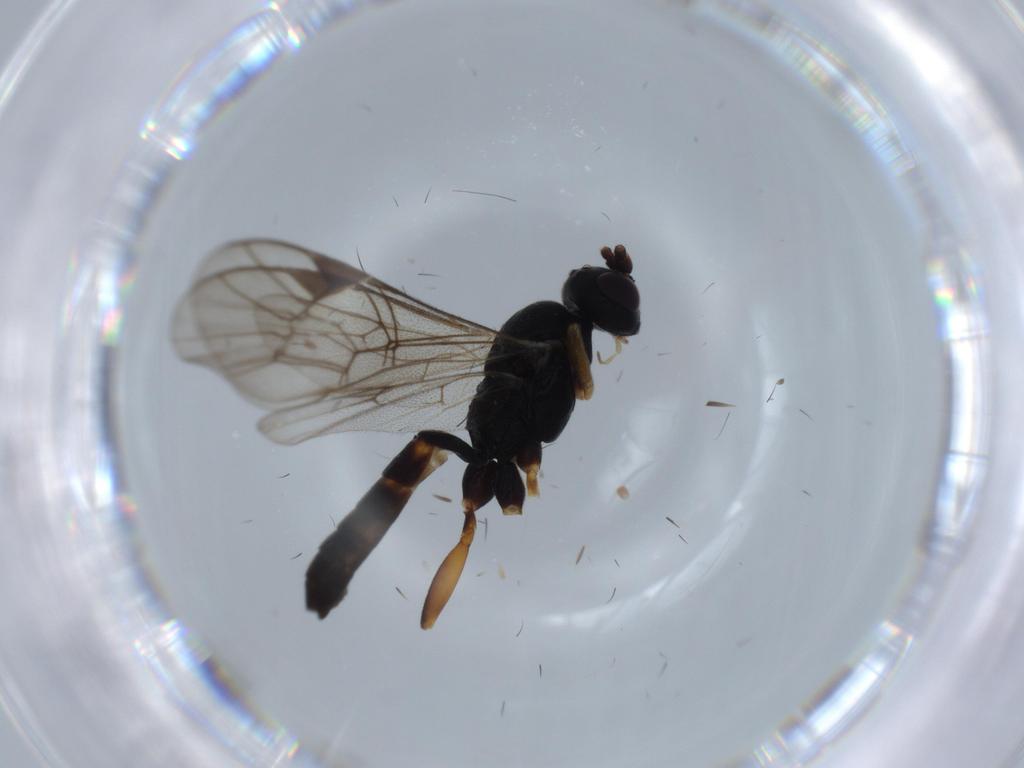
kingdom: Animalia
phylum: Arthropoda
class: Insecta
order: Hymenoptera
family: Ichneumonidae
